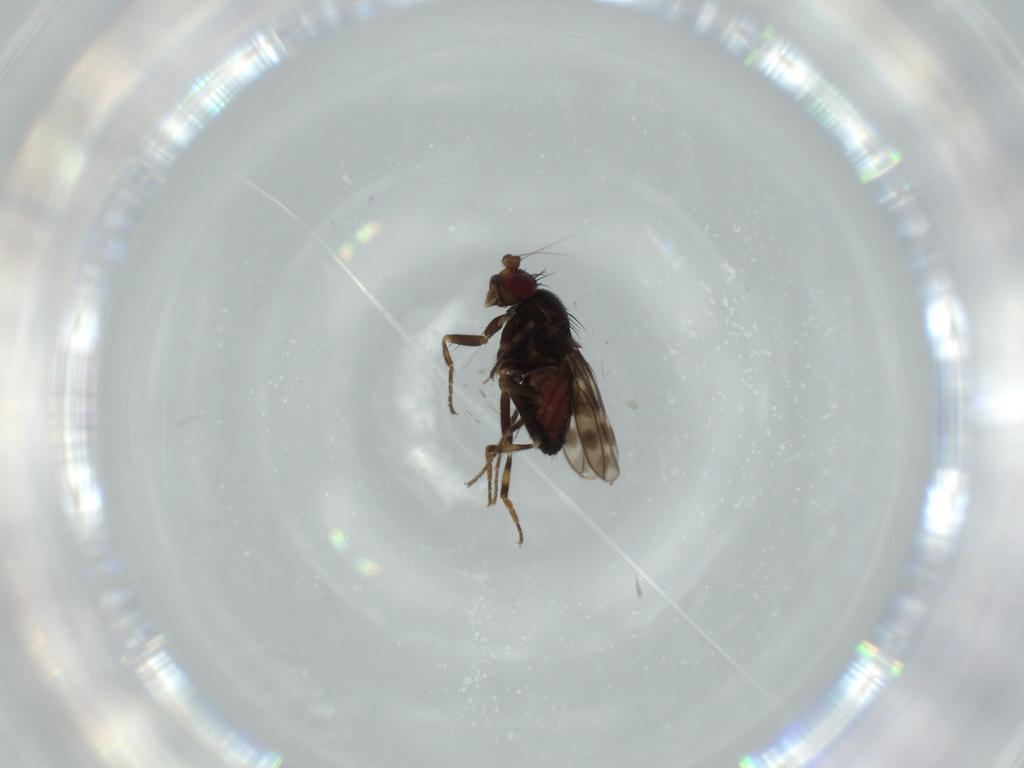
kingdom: Animalia
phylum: Arthropoda
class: Insecta
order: Diptera
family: Sphaeroceridae
